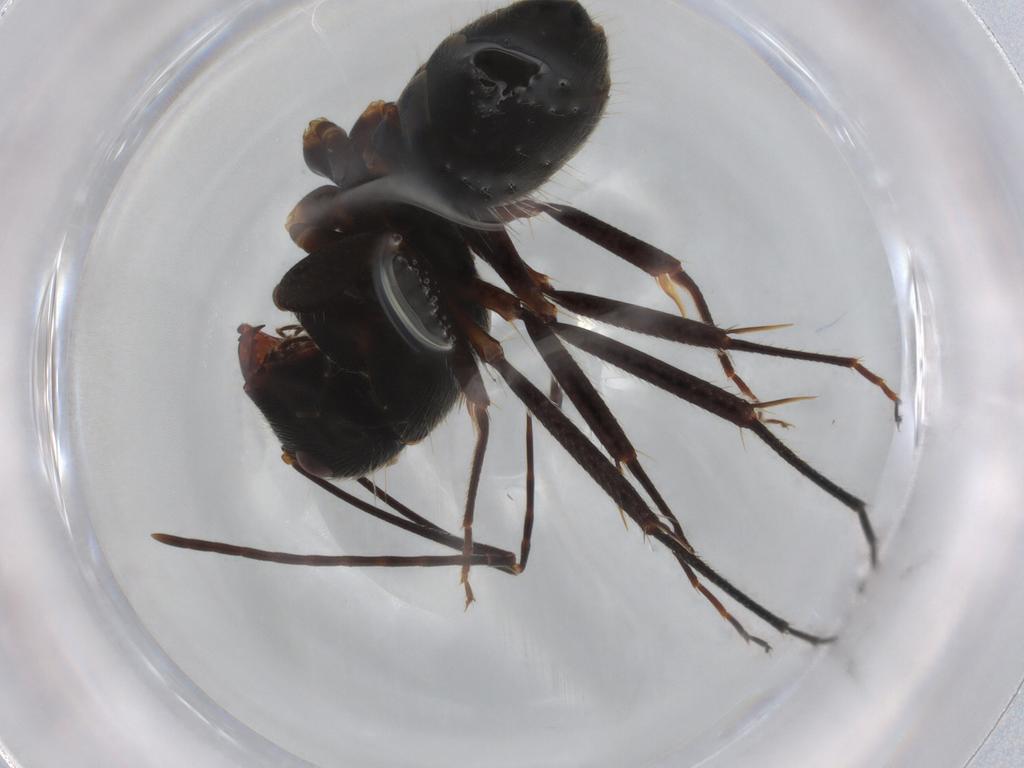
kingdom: Animalia
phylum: Arthropoda
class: Insecta
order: Hymenoptera
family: Formicidae
